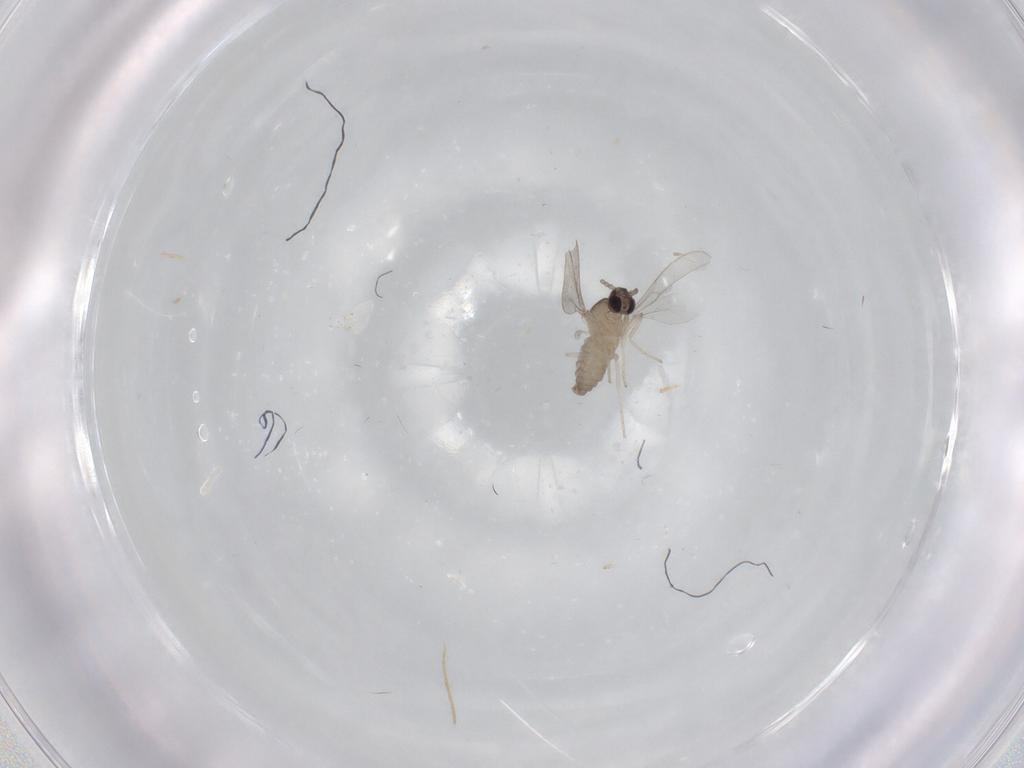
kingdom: Animalia
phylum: Arthropoda
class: Insecta
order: Diptera
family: Cecidomyiidae
